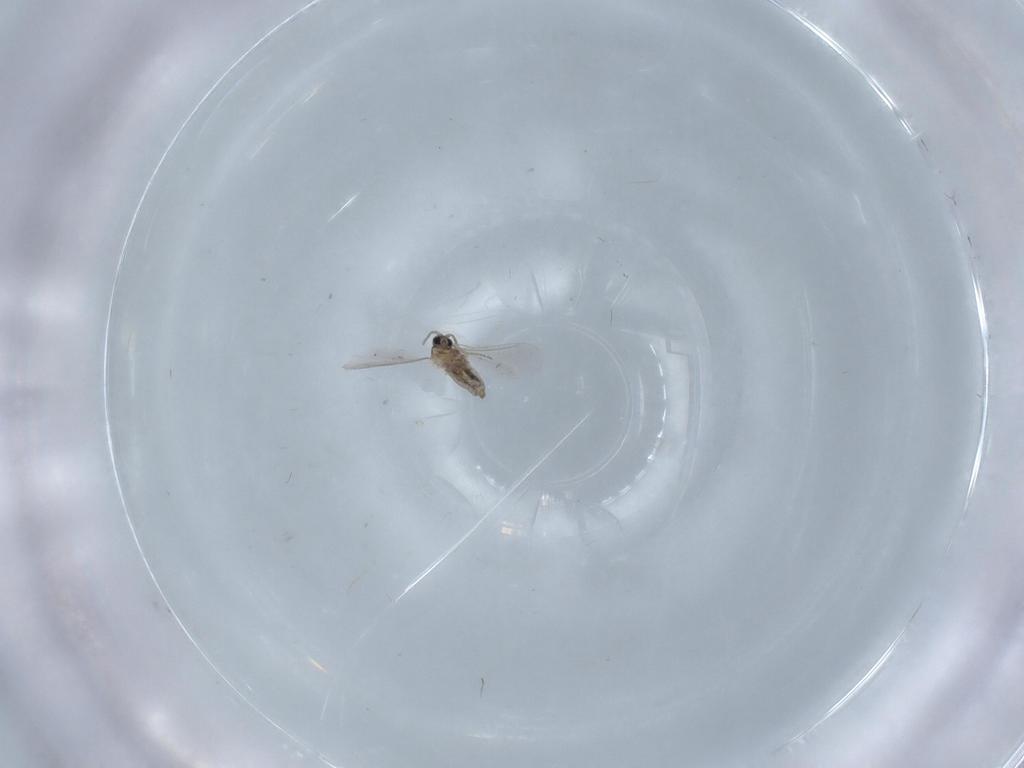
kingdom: Animalia
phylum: Arthropoda
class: Insecta
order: Diptera
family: Cecidomyiidae
